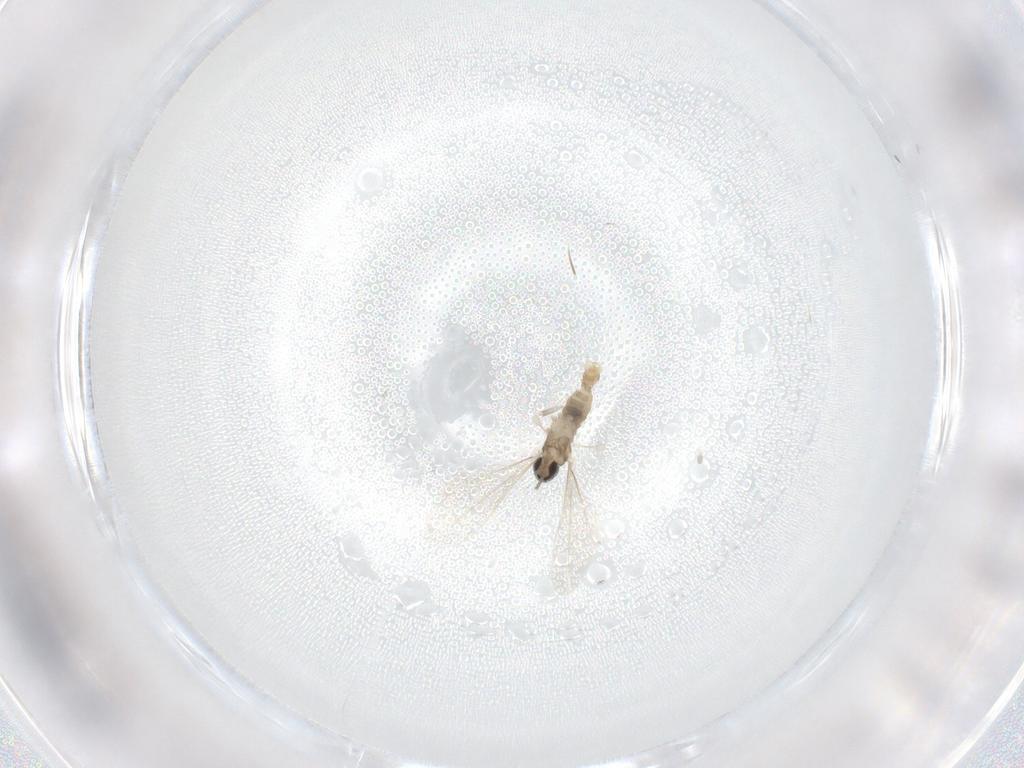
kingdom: Animalia
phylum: Arthropoda
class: Insecta
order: Diptera
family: Cecidomyiidae
